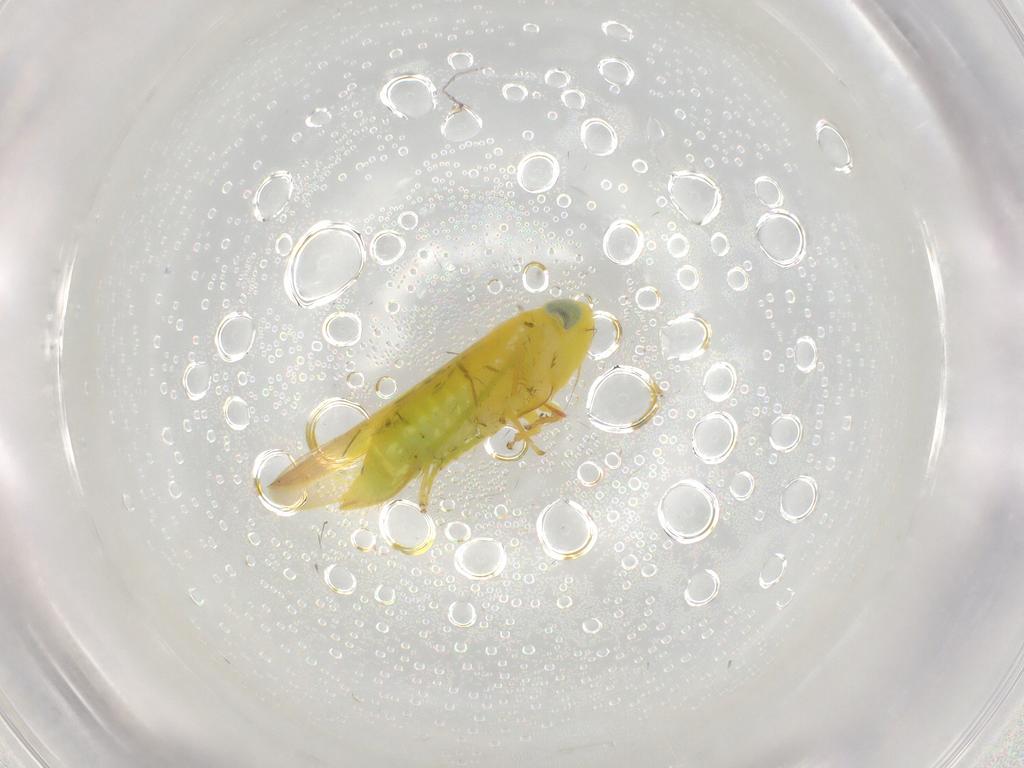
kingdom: Animalia
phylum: Arthropoda
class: Insecta
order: Hemiptera
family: Cicadellidae
